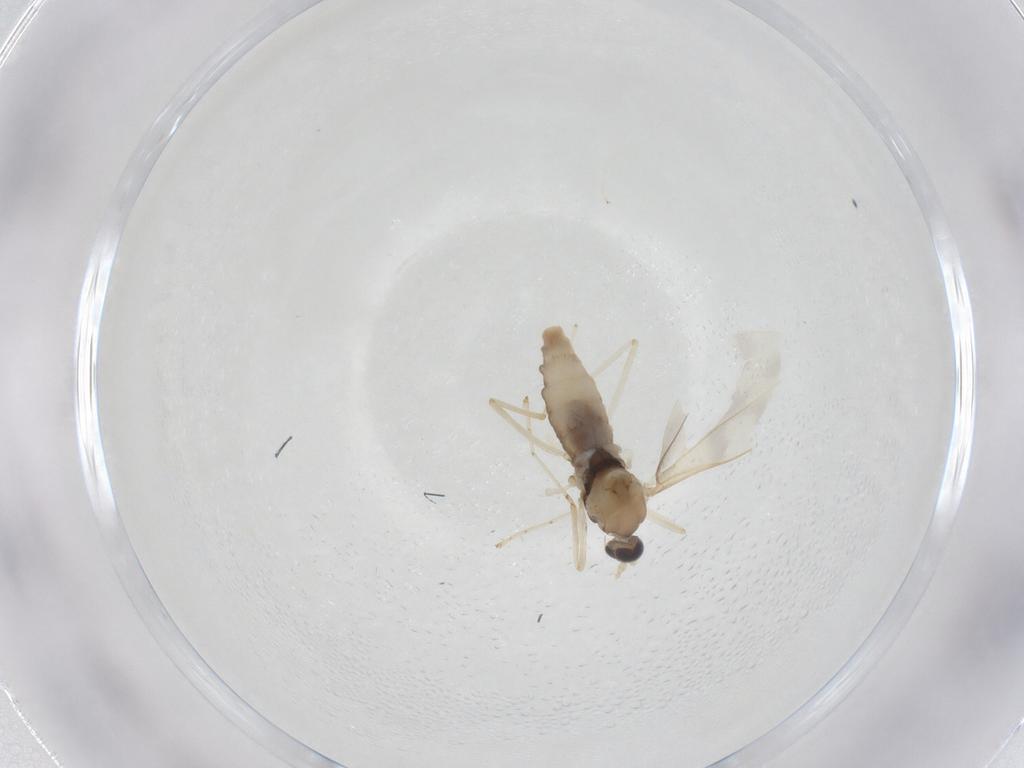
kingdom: Animalia
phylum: Arthropoda
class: Insecta
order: Diptera
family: Cecidomyiidae
